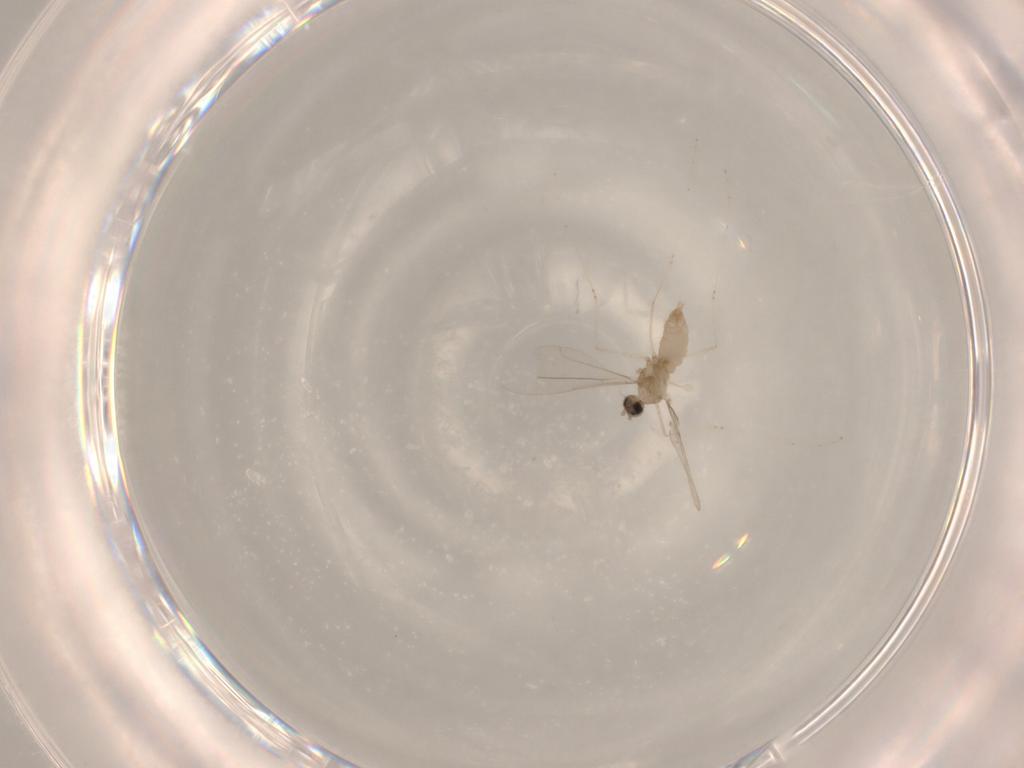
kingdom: Animalia
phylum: Arthropoda
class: Insecta
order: Diptera
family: Cecidomyiidae
